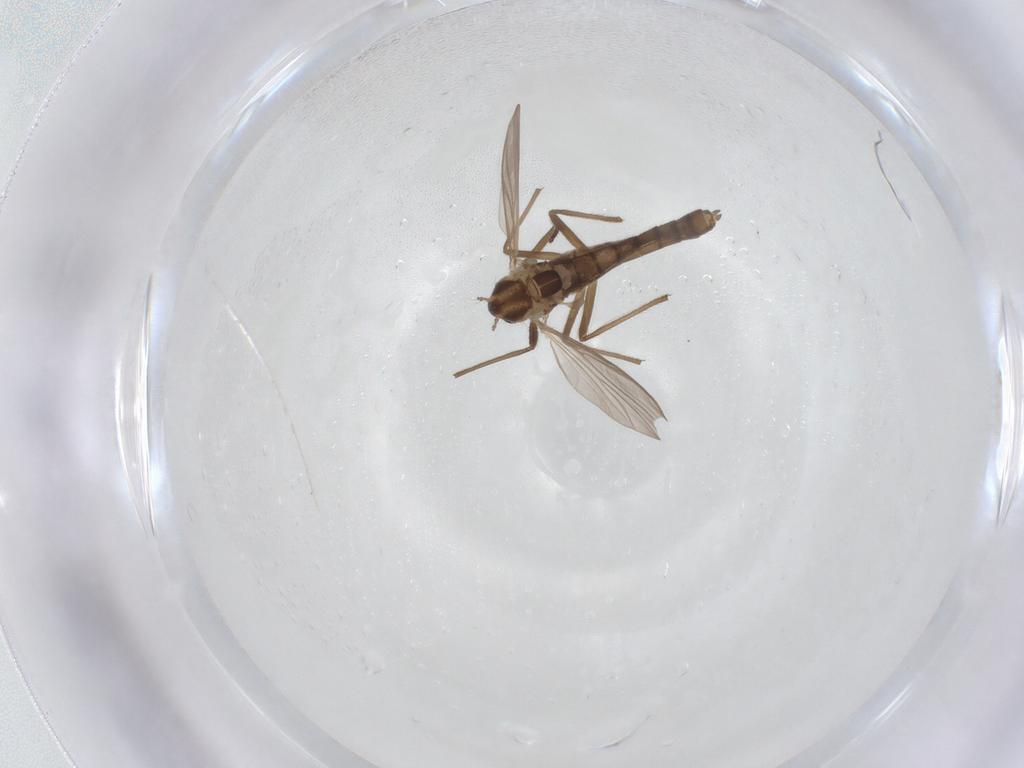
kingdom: Animalia
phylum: Arthropoda
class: Insecta
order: Diptera
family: Chironomidae
